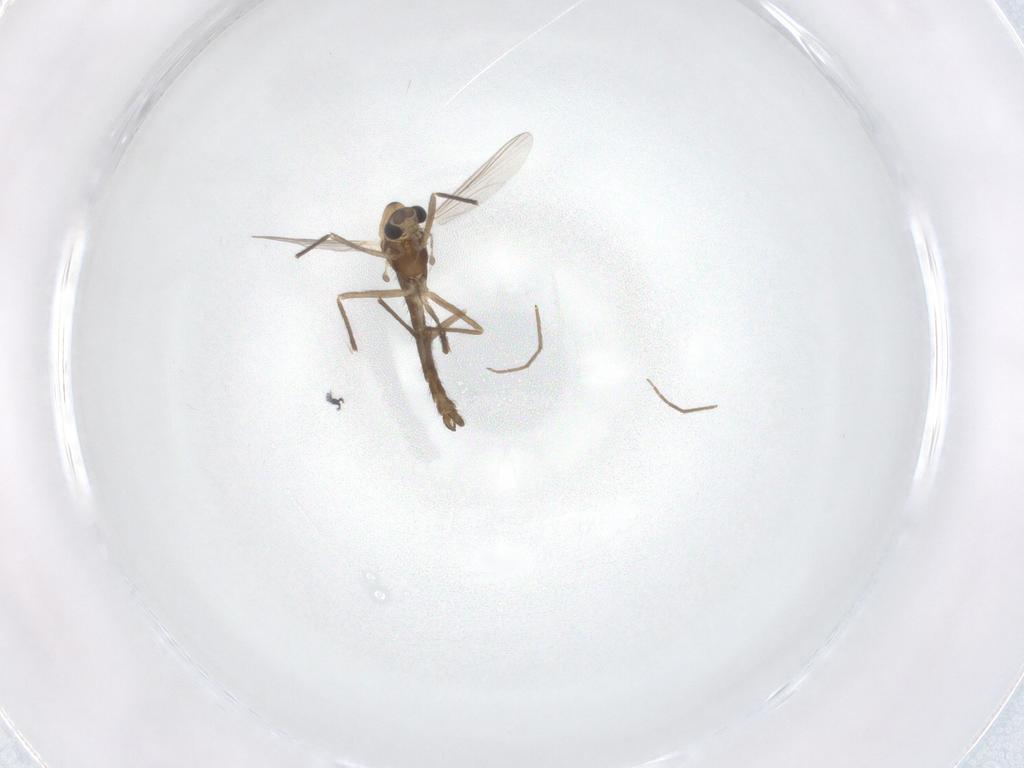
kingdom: Animalia
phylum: Arthropoda
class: Insecta
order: Diptera
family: Chironomidae
